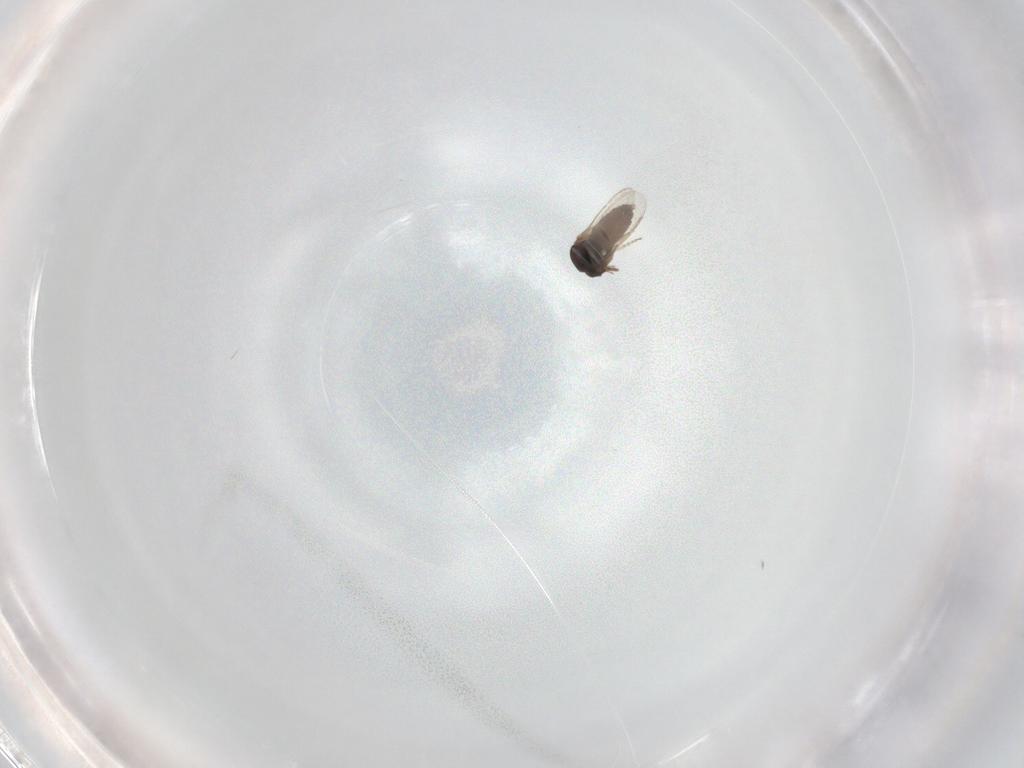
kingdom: Animalia
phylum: Arthropoda
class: Insecta
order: Diptera
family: Ceratopogonidae
